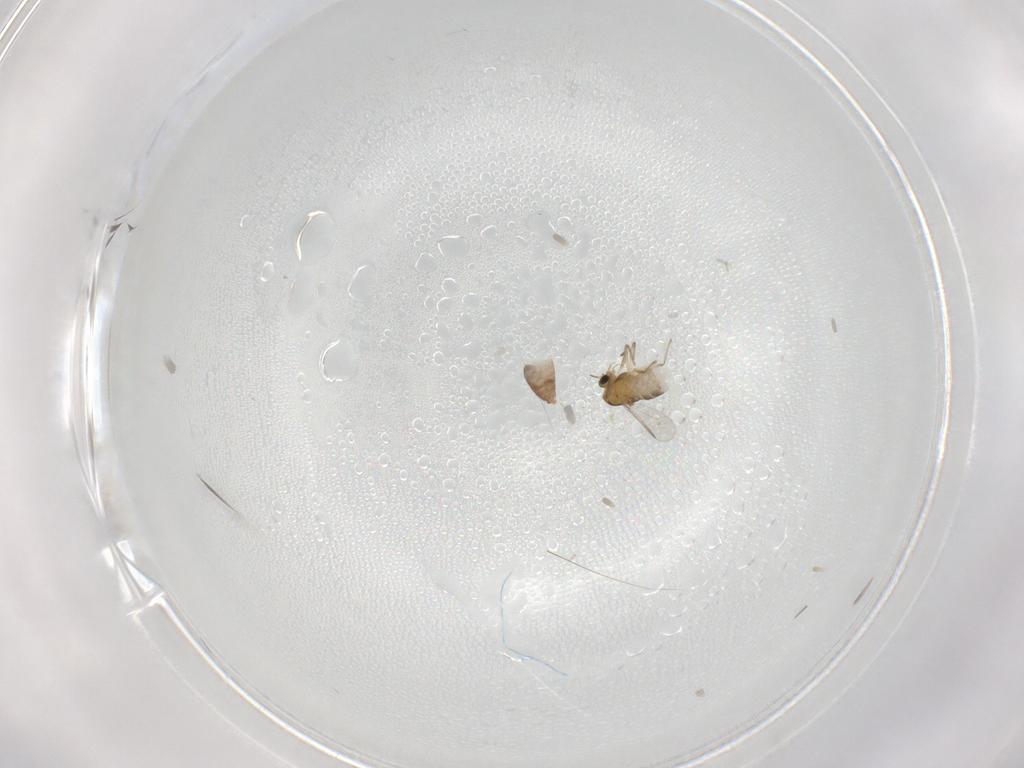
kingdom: Animalia
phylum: Arthropoda
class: Insecta
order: Diptera
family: Chironomidae
